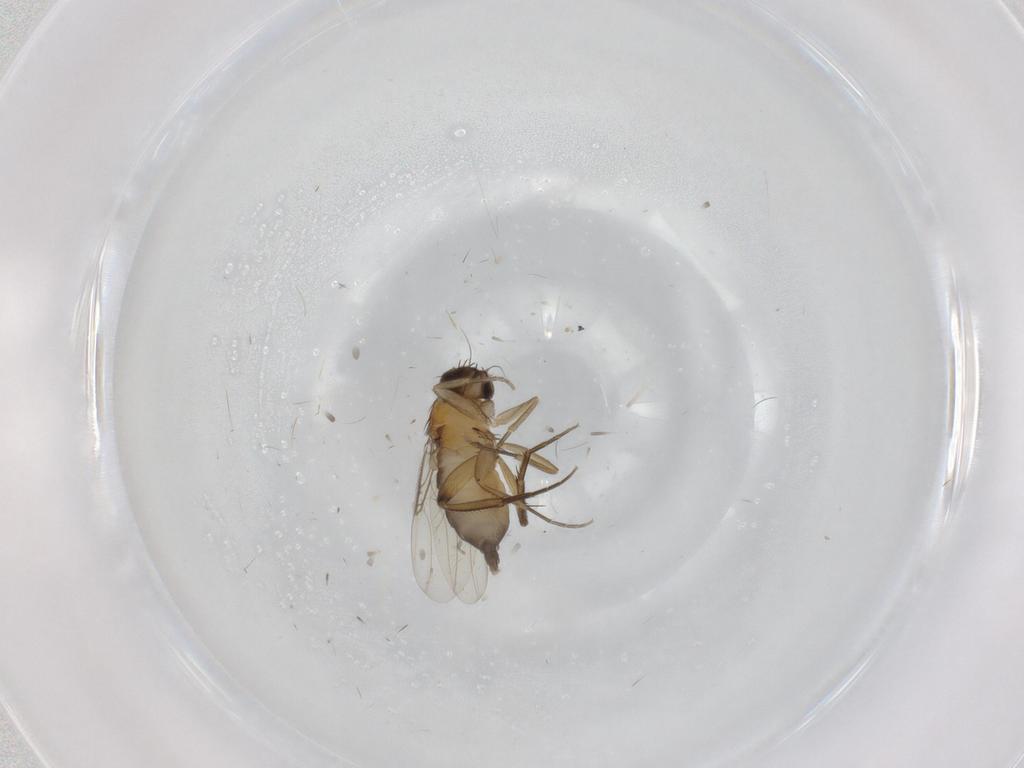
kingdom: Animalia
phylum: Arthropoda
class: Insecta
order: Diptera
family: Phoridae
